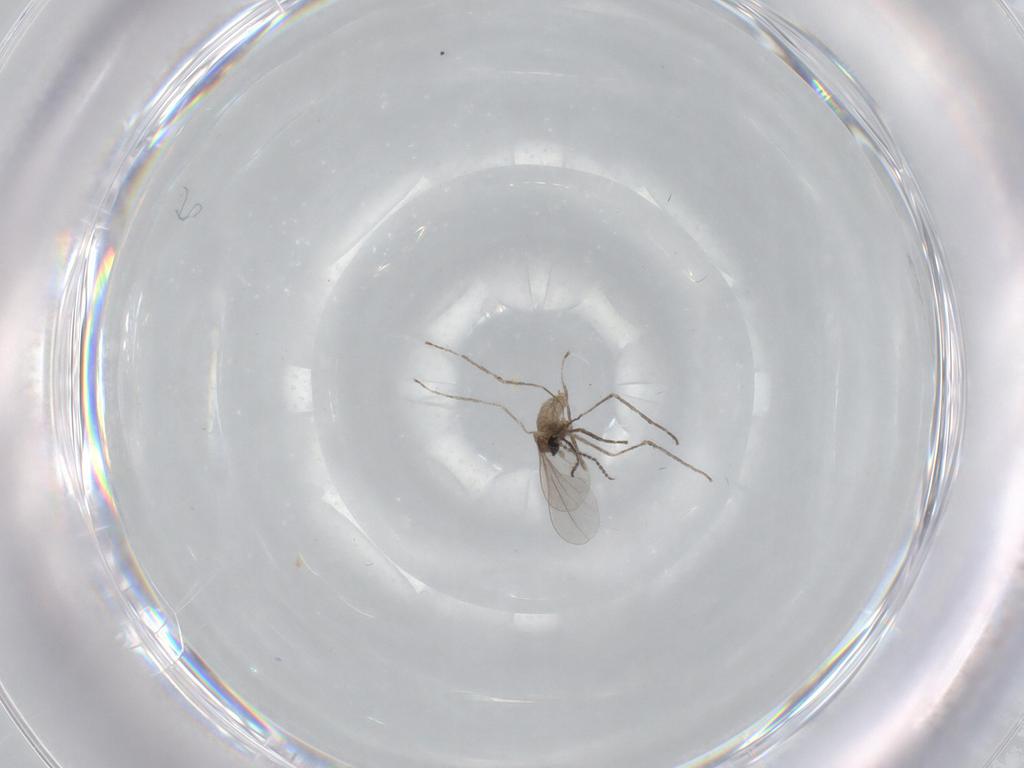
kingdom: Animalia
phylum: Arthropoda
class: Insecta
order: Diptera
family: Cecidomyiidae
